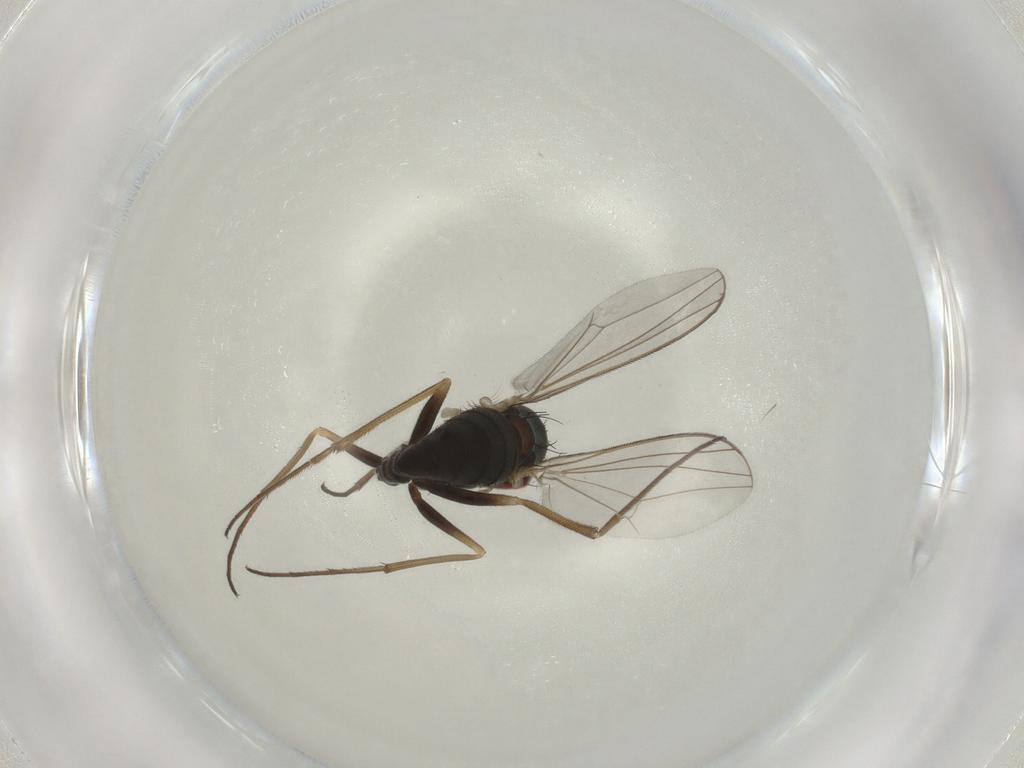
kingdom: Animalia
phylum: Arthropoda
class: Insecta
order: Diptera
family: Dolichopodidae
